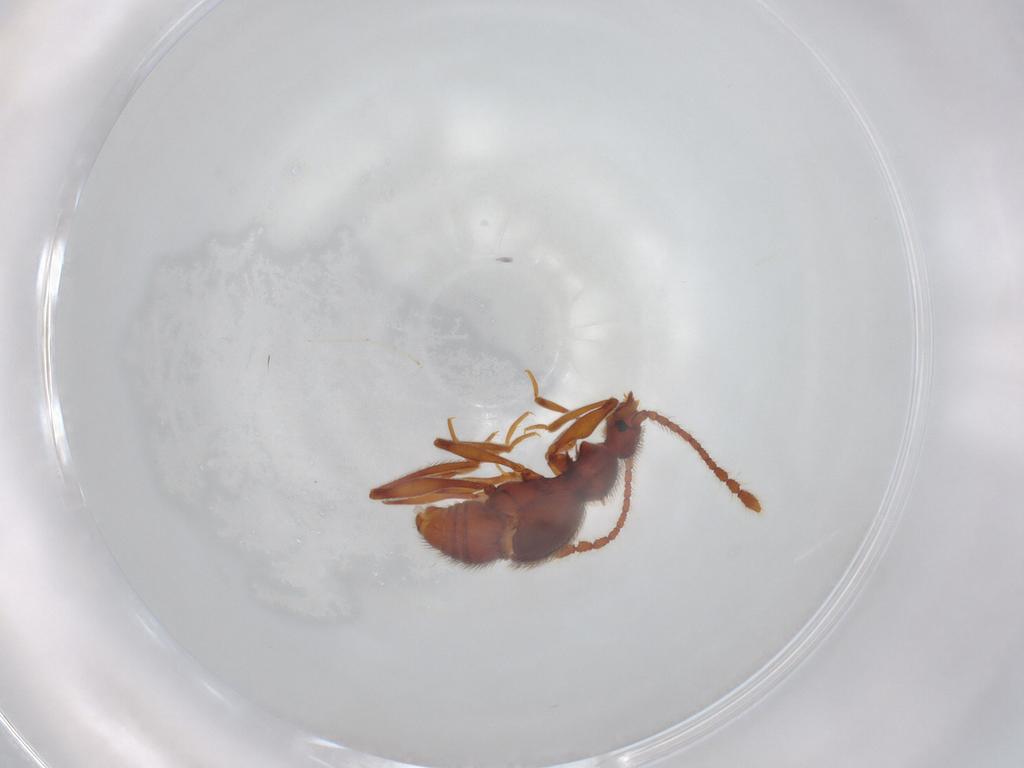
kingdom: Animalia
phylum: Arthropoda
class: Insecta
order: Coleoptera
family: Staphylinidae
